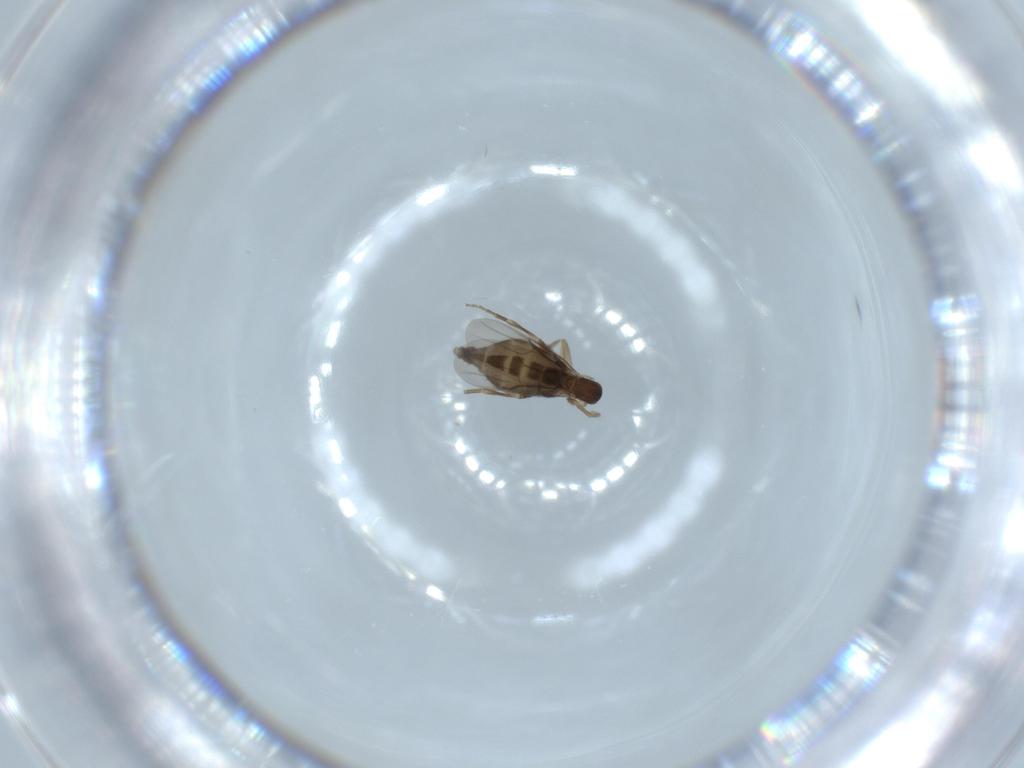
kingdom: Animalia
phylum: Arthropoda
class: Insecta
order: Diptera
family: Phoridae
